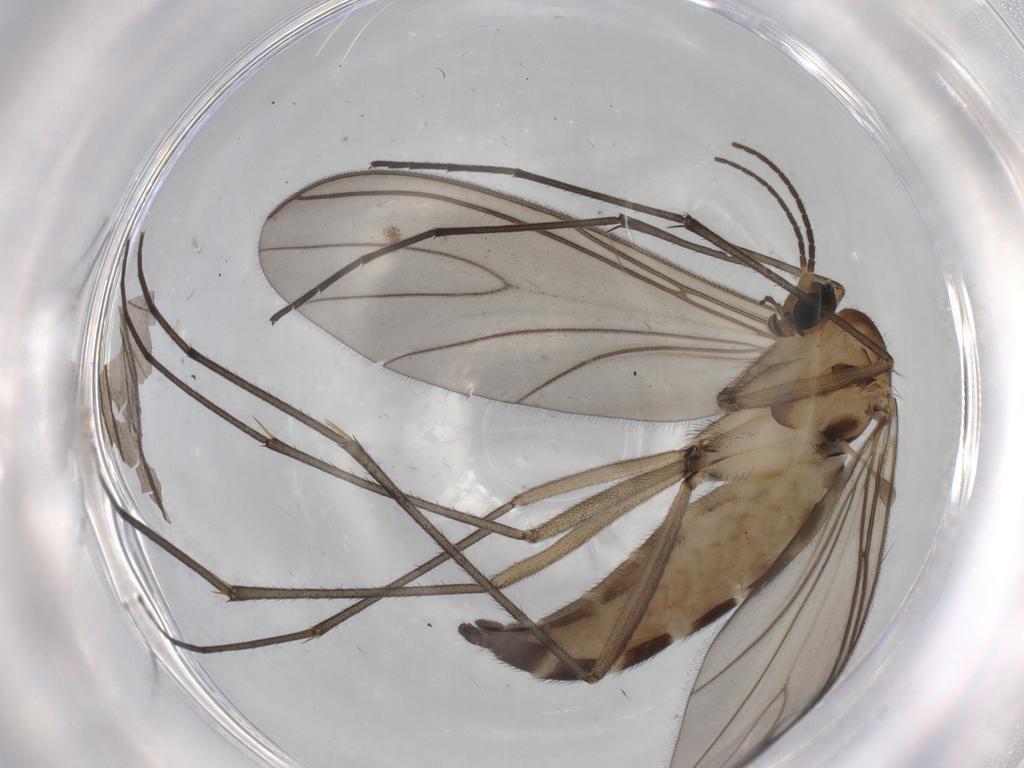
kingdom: Animalia
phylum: Arthropoda
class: Insecta
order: Diptera
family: Sciaridae
